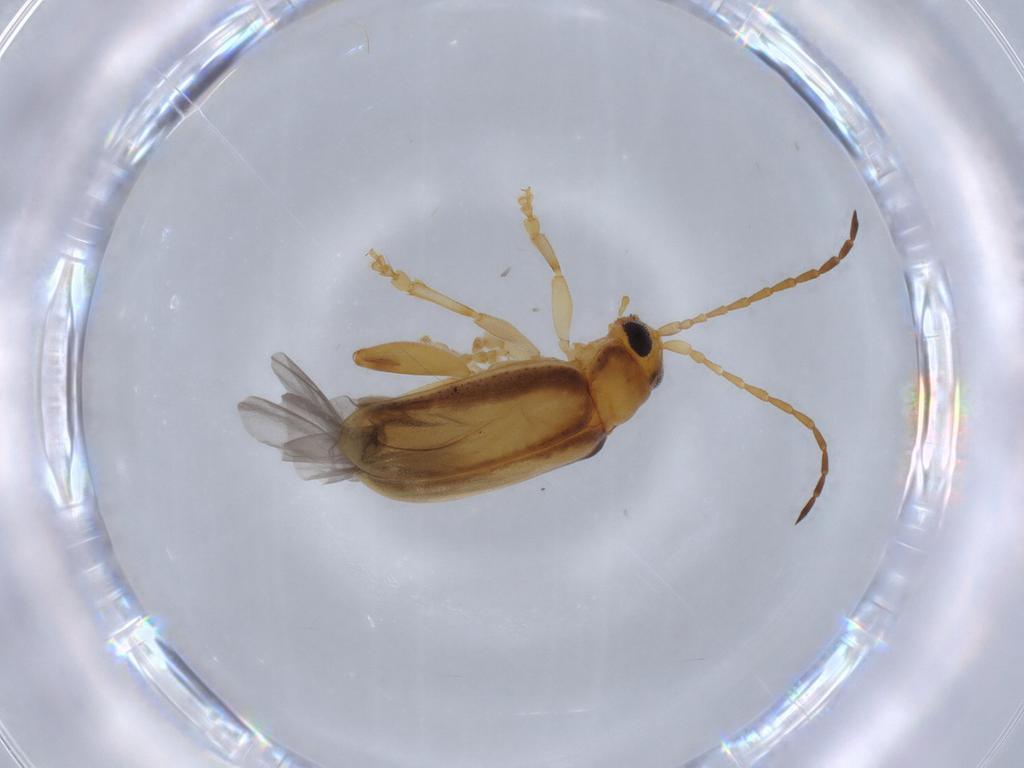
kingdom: Animalia
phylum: Arthropoda
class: Insecta
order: Coleoptera
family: Chrysomelidae
